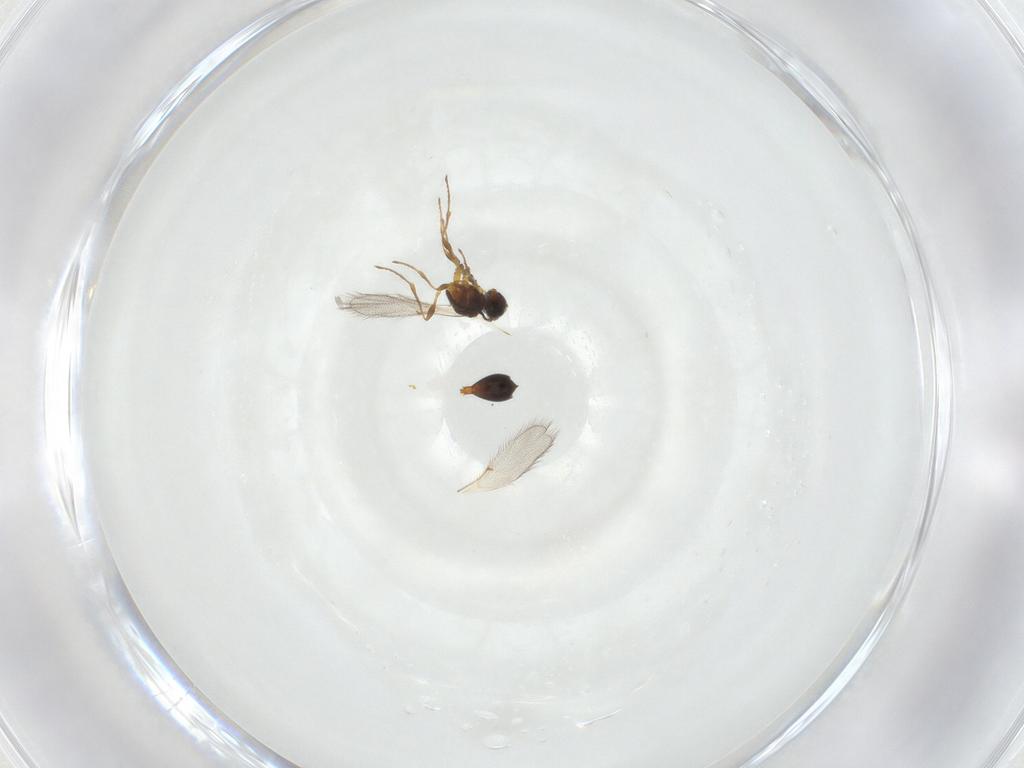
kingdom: Animalia
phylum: Arthropoda
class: Insecta
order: Hymenoptera
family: Diapriidae
